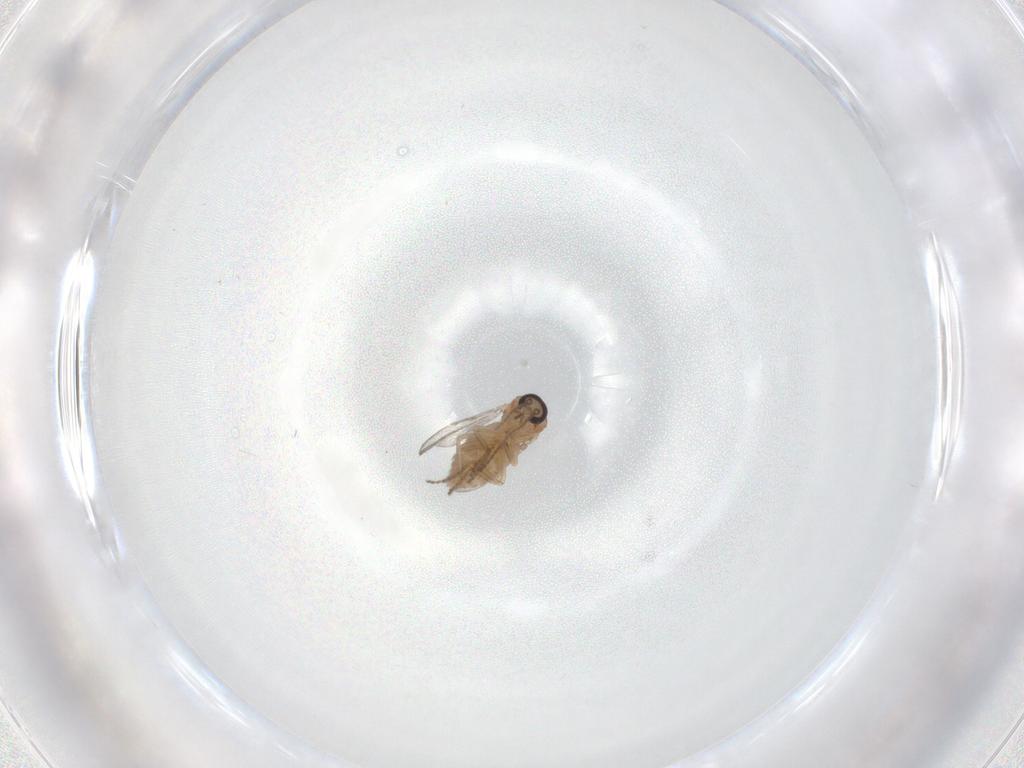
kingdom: Animalia
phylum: Arthropoda
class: Insecta
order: Diptera
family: Ceratopogonidae
